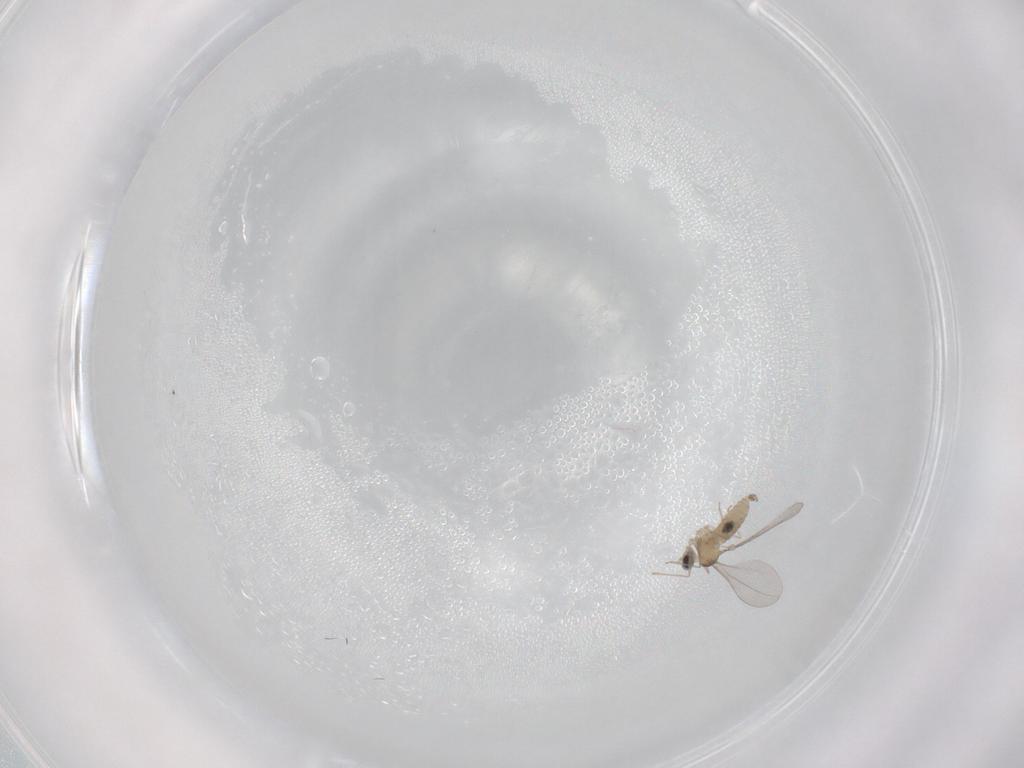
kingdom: Animalia
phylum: Arthropoda
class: Insecta
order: Diptera
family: Cecidomyiidae
